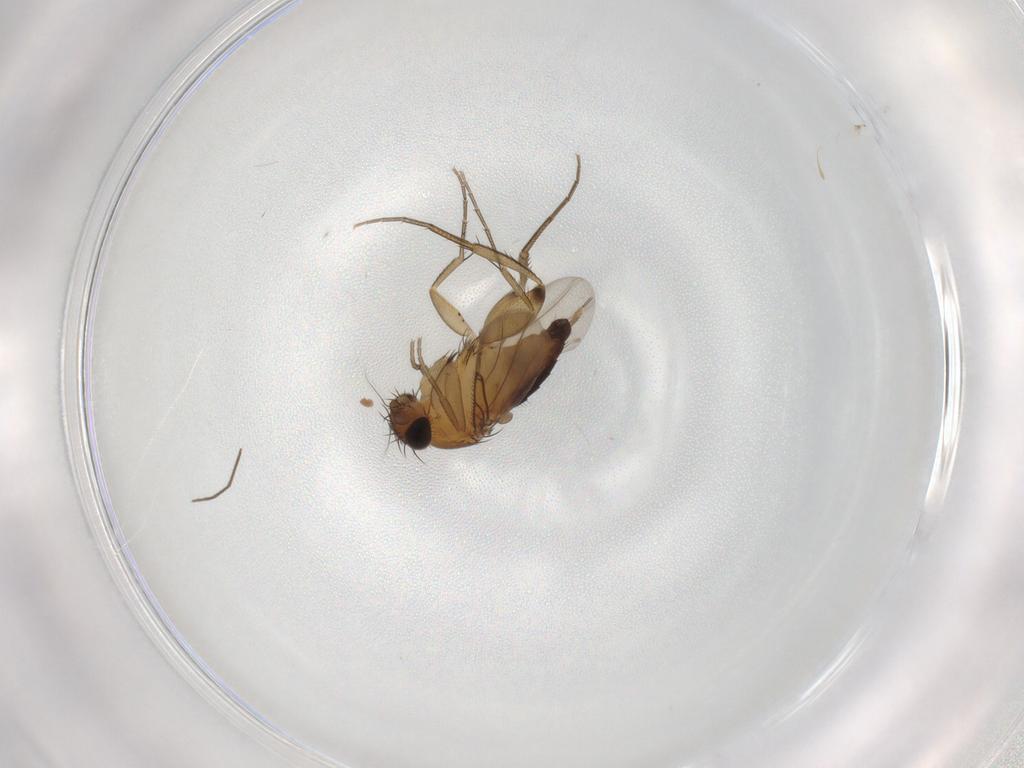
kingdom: Animalia
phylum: Arthropoda
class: Insecta
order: Diptera
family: Phoridae
